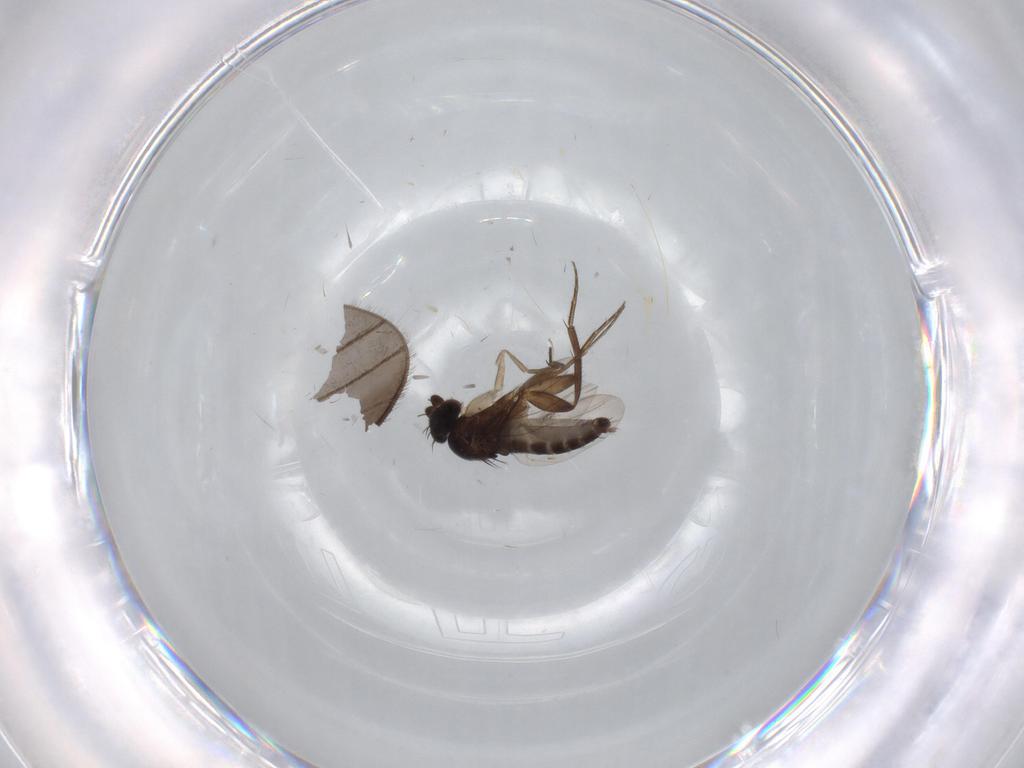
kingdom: Animalia
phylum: Arthropoda
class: Insecta
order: Diptera
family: Phoridae
